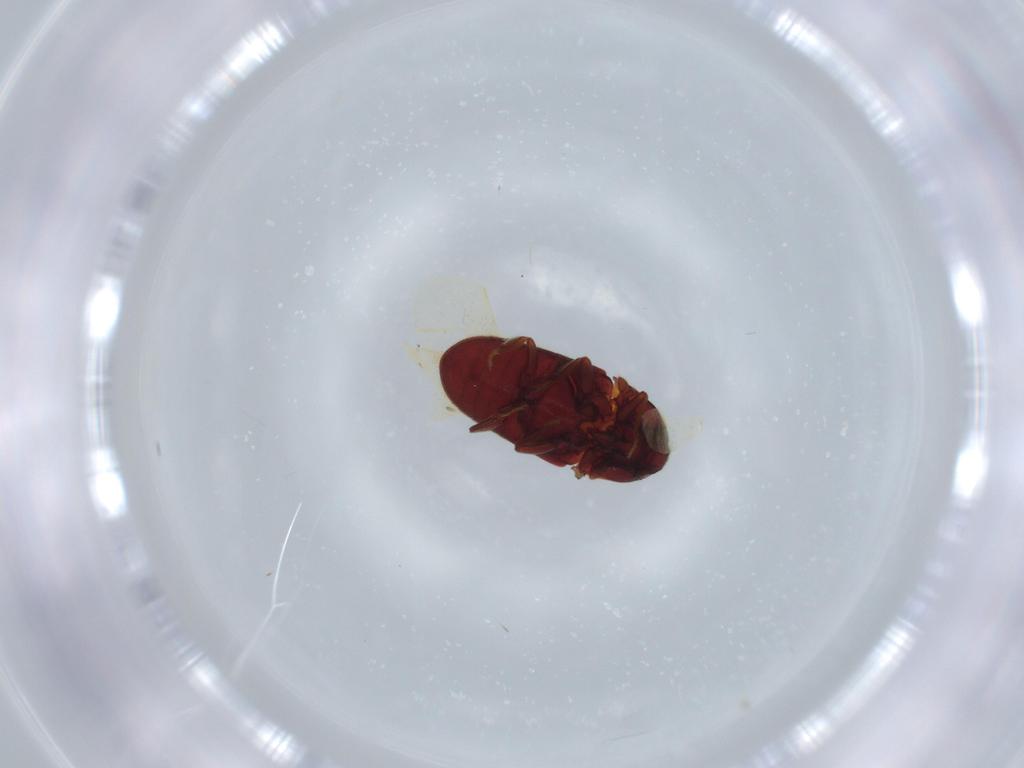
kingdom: Animalia
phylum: Arthropoda
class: Insecta
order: Coleoptera
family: Throscidae
